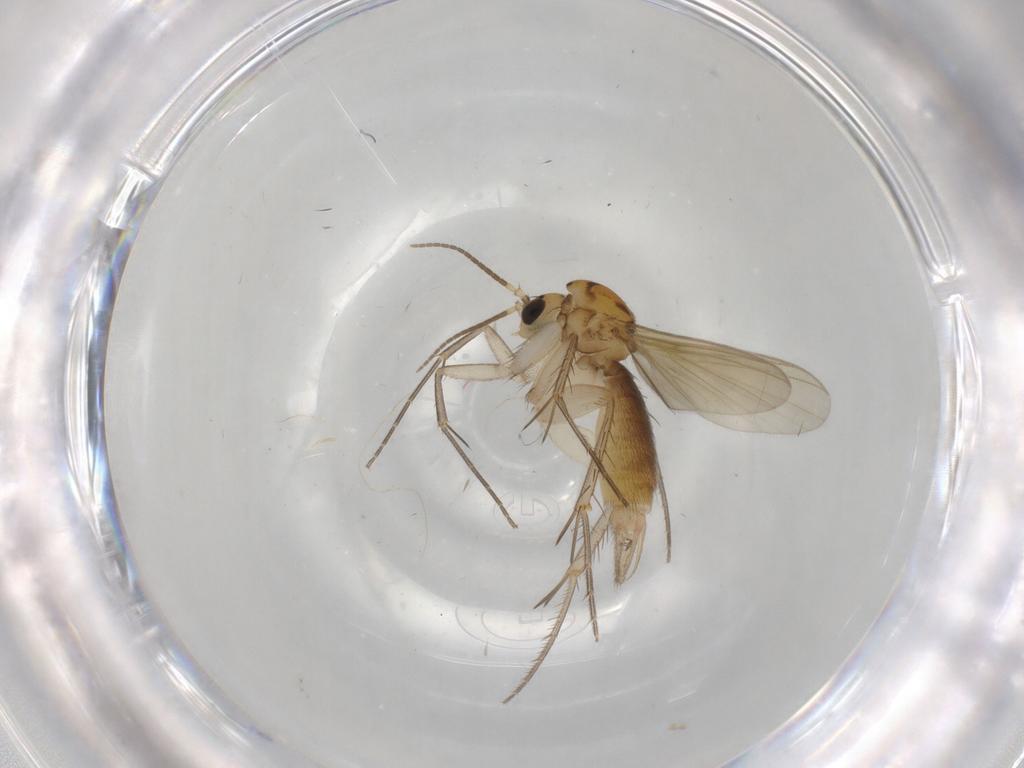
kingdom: Animalia
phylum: Arthropoda
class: Insecta
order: Diptera
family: Mycetophilidae
